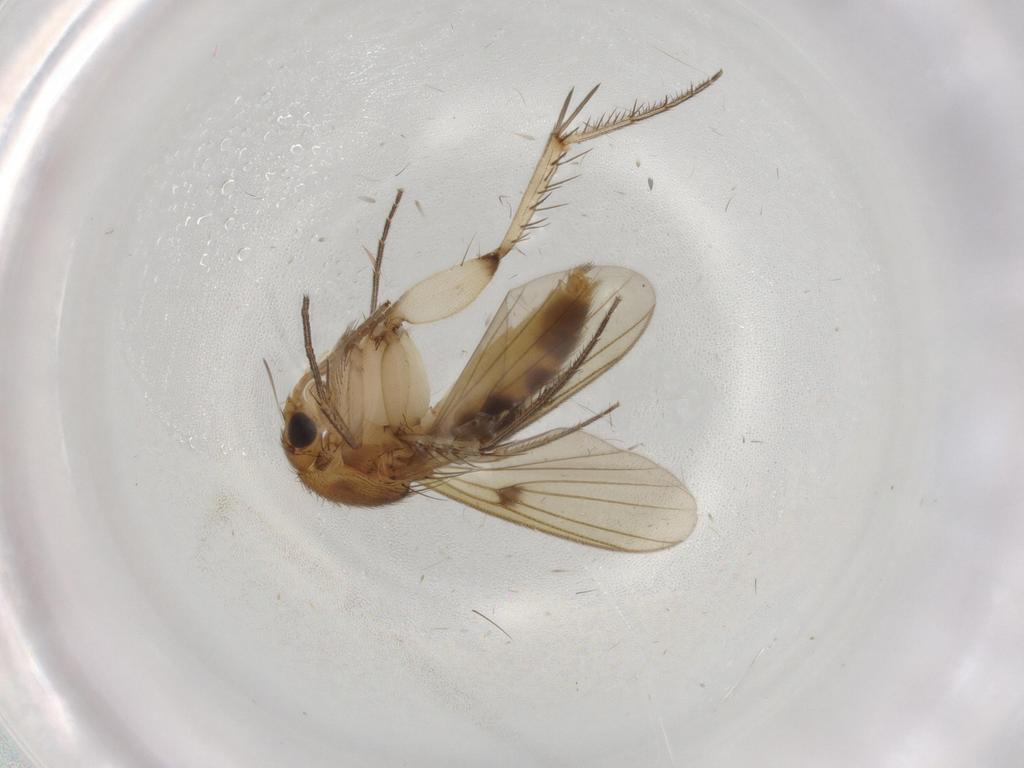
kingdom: Animalia
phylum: Arthropoda
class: Insecta
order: Diptera
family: Mycetophilidae
